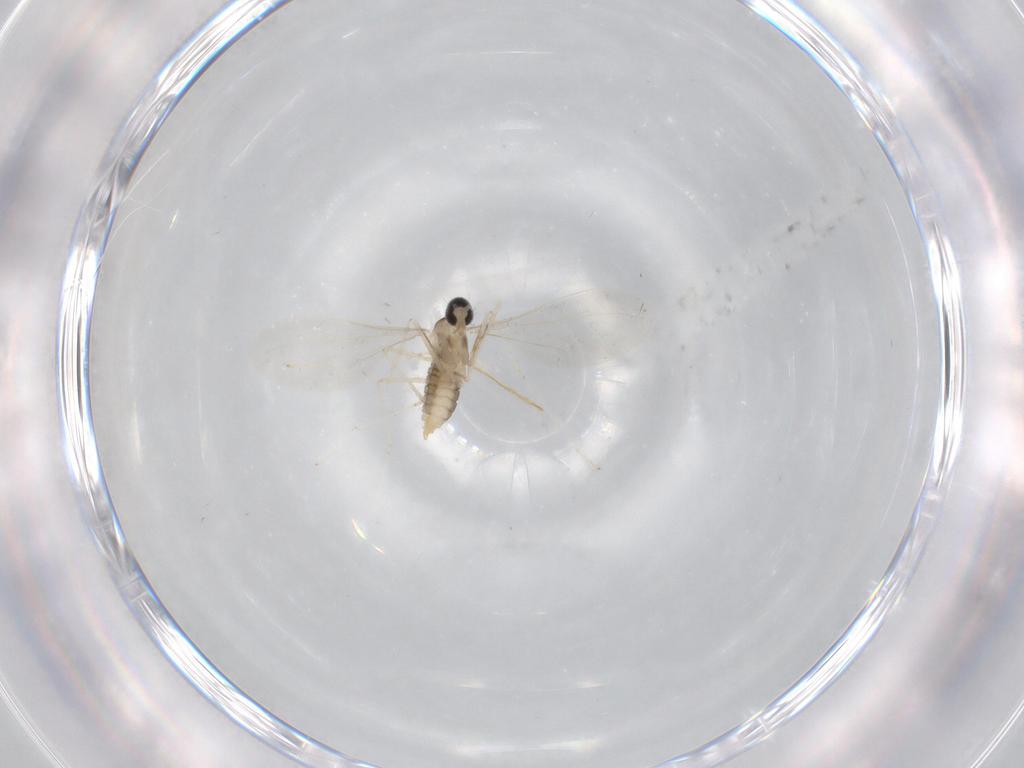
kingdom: Animalia
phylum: Arthropoda
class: Insecta
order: Diptera
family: Cecidomyiidae
